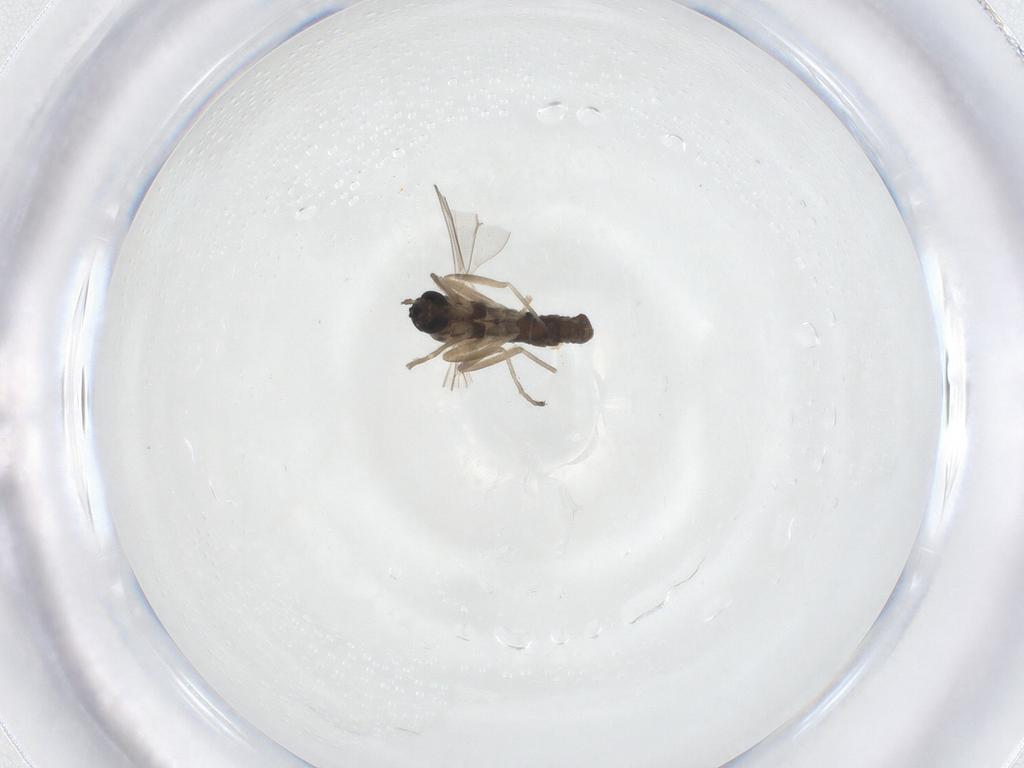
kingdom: Animalia
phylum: Arthropoda
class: Insecta
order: Diptera
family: Cecidomyiidae
